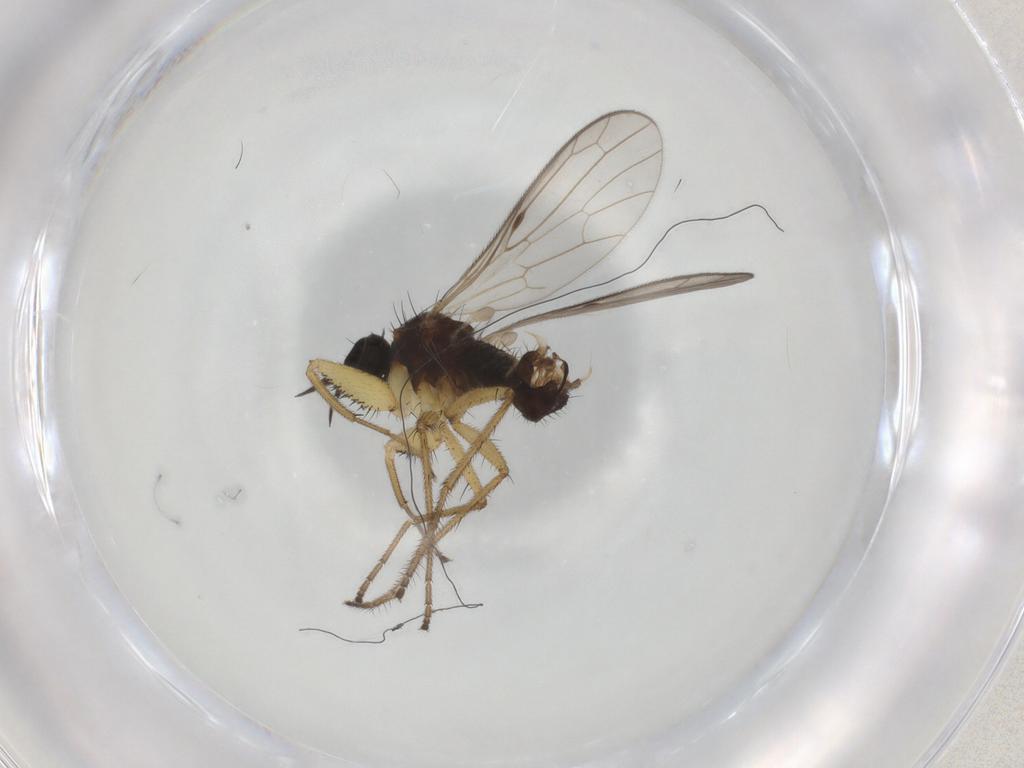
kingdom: Animalia
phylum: Arthropoda
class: Insecta
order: Diptera
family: Empididae
